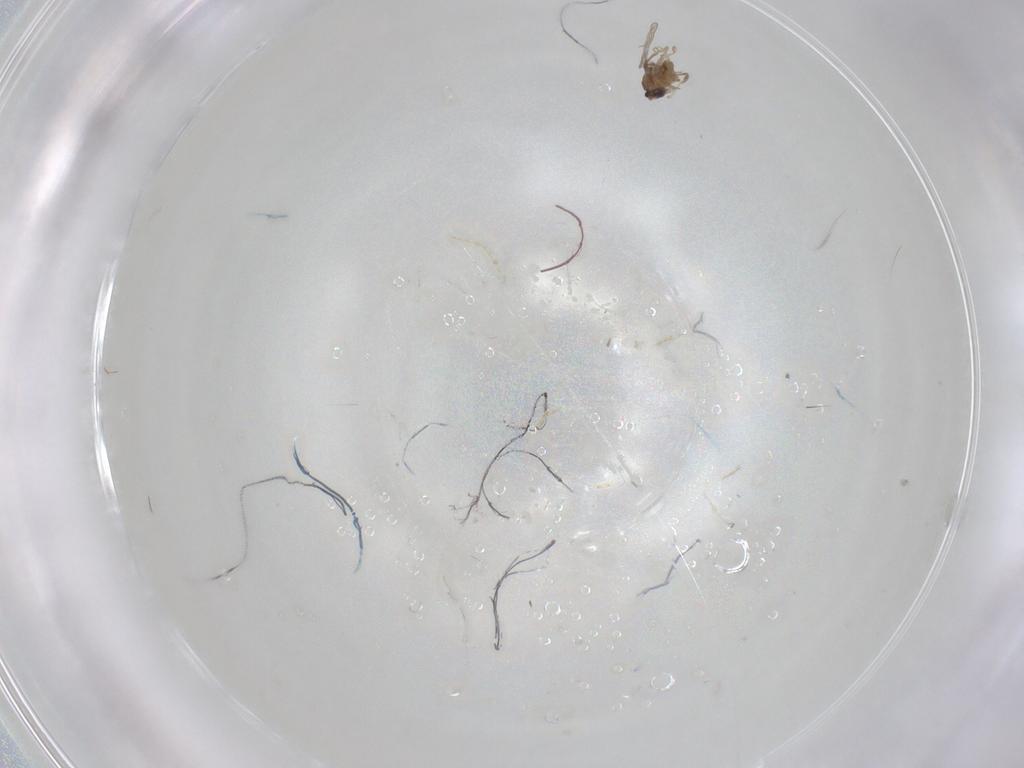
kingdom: Animalia
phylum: Arthropoda
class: Insecta
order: Diptera
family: Chironomidae
